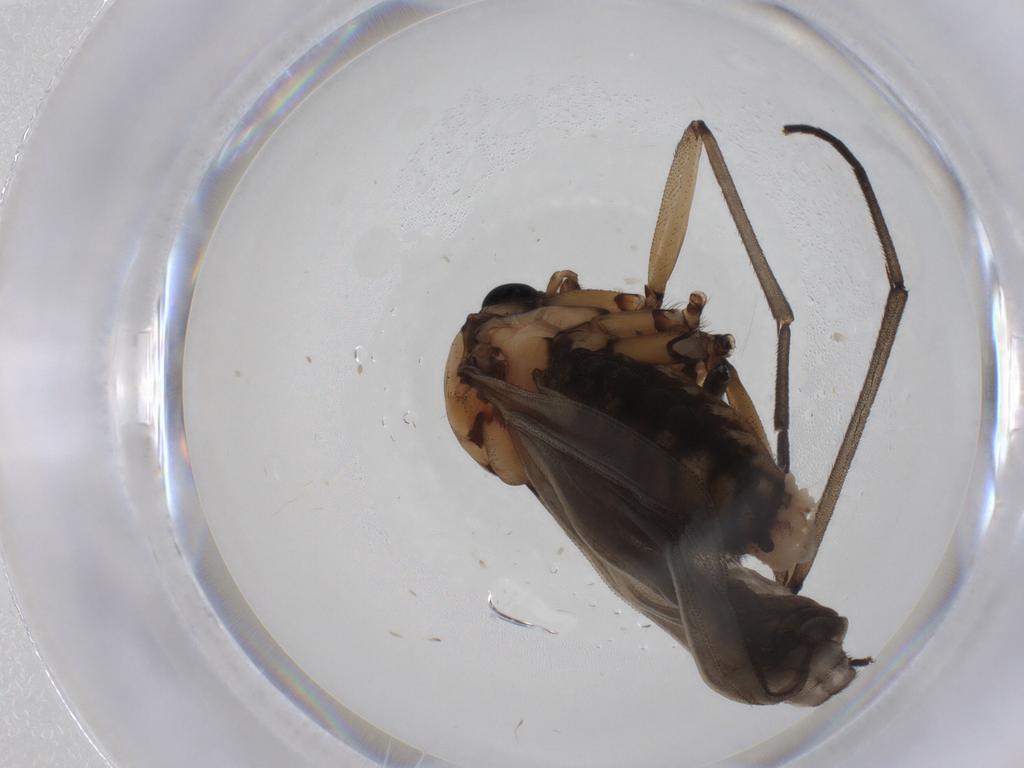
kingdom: Animalia
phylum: Arthropoda
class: Insecta
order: Diptera
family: Sciaridae
